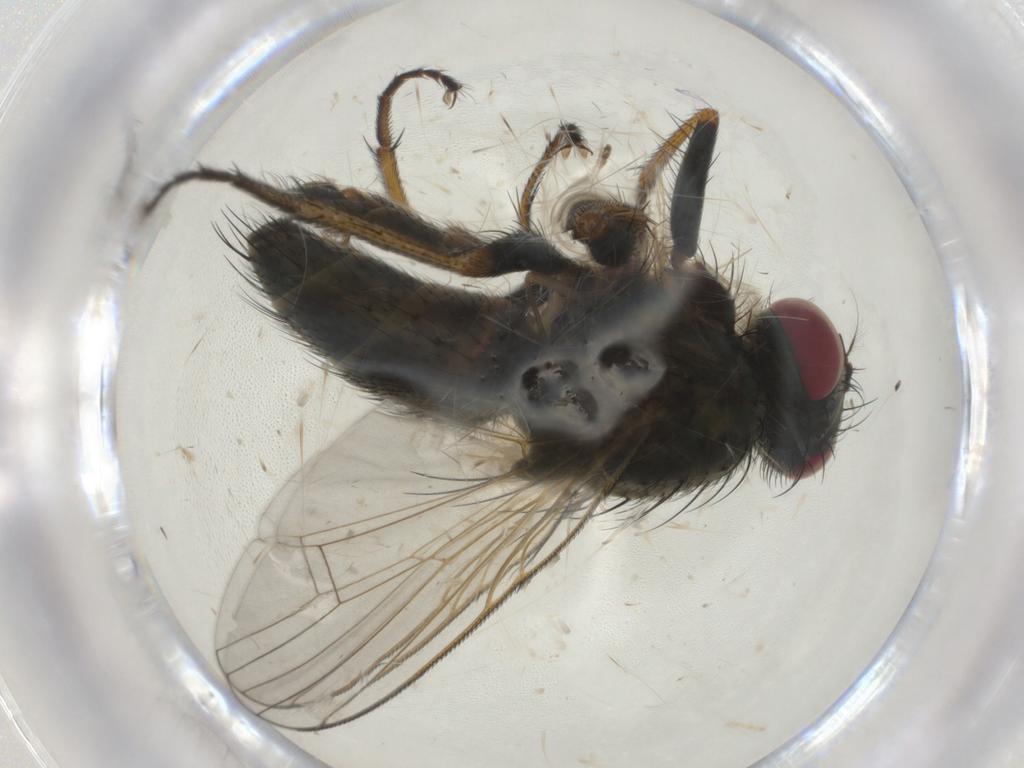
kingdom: Animalia
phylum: Arthropoda
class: Insecta
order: Diptera
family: Muscidae
